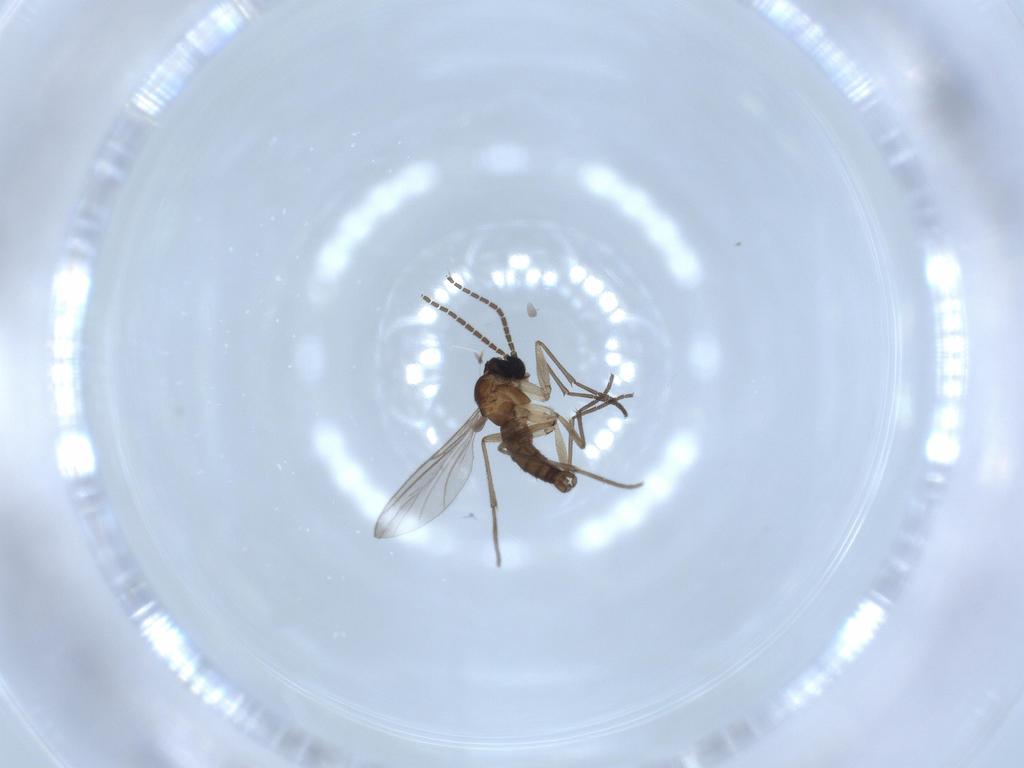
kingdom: Animalia
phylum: Arthropoda
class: Insecta
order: Diptera
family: Sciaridae
